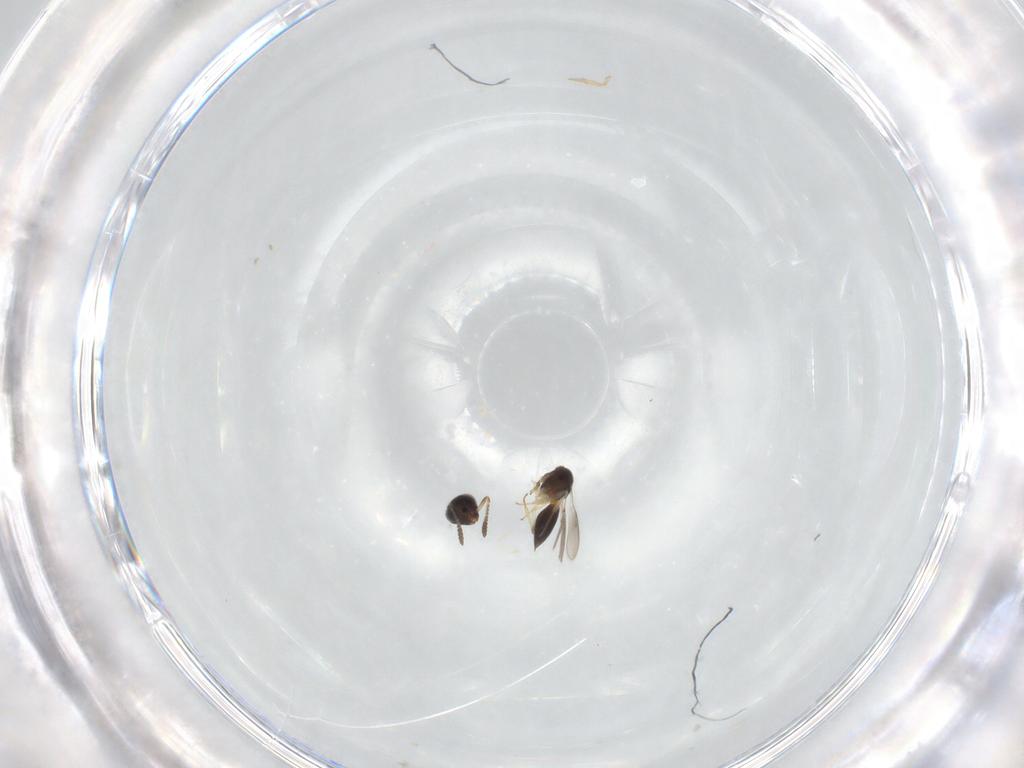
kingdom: Animalia
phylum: Arthropoda
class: Insecta
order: Hymenoptera
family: Scelionidae
